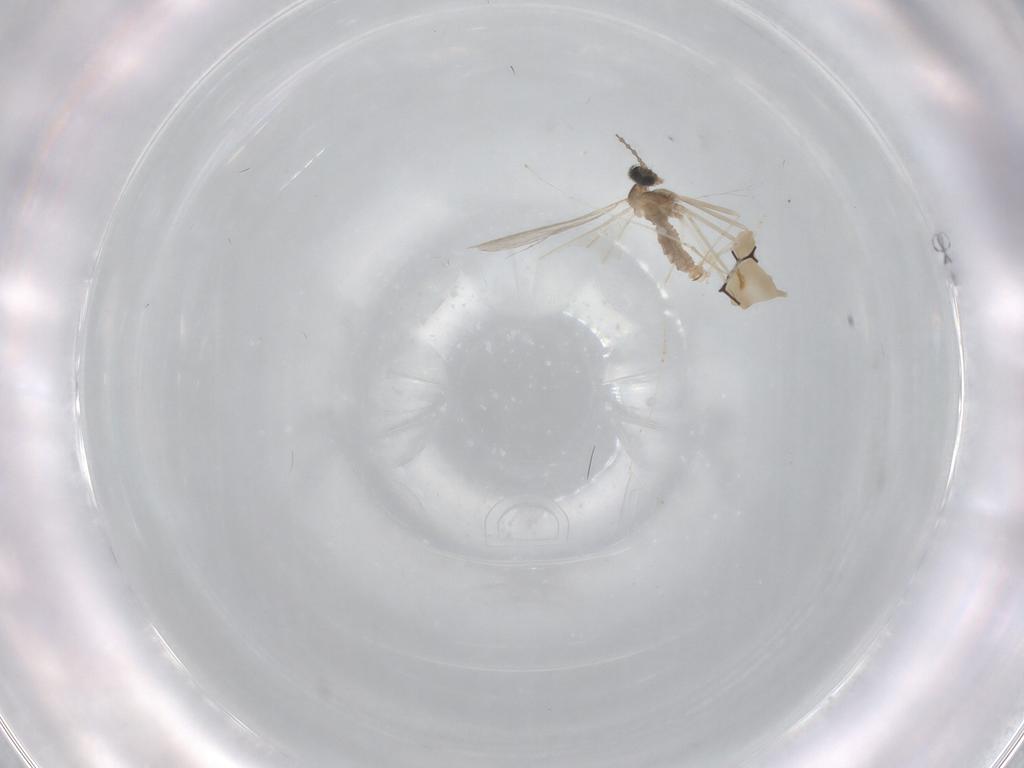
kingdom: Animalia
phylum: Arthropoda
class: Insecta
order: Diptera
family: Cecidomyiidae
